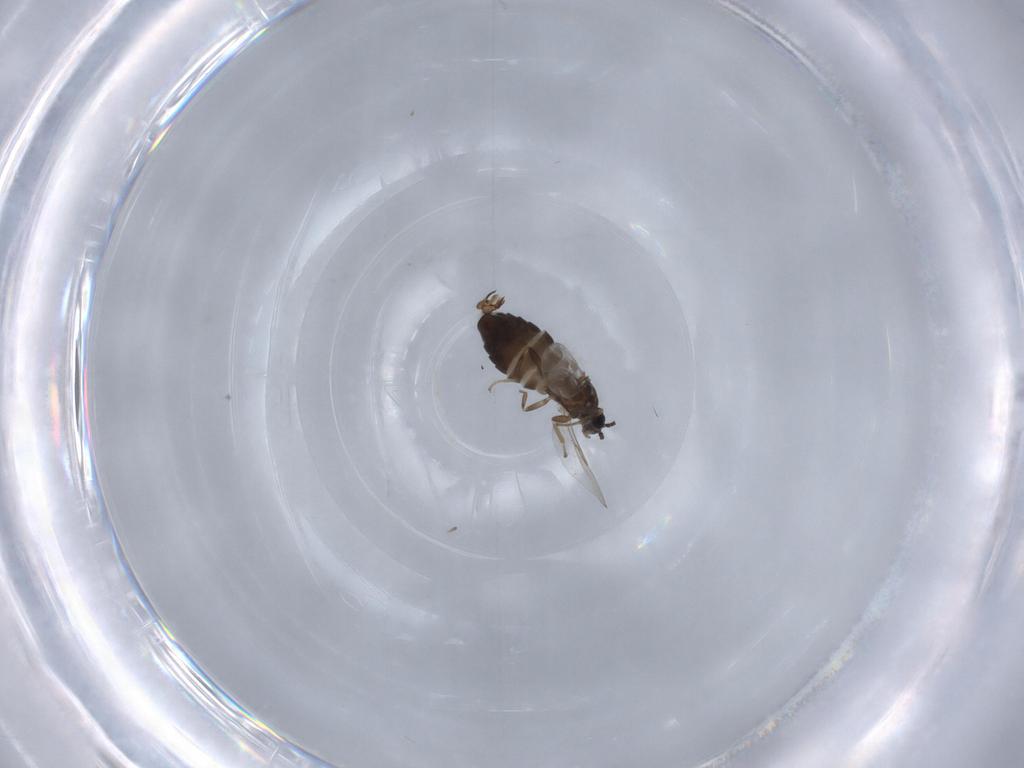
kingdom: Animalia
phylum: Arthropoda
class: Insecta
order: Diptera
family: Scatopsidae
